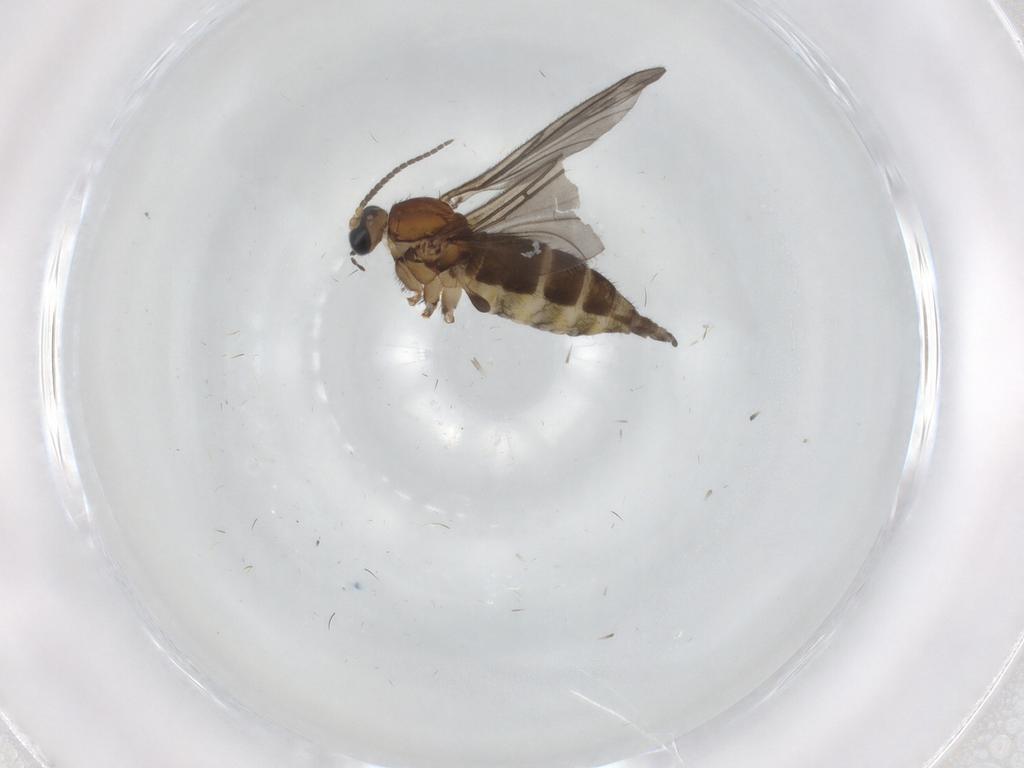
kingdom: Animalia
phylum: Arthropoda
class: Insecta
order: Diptera
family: Sciaridae
